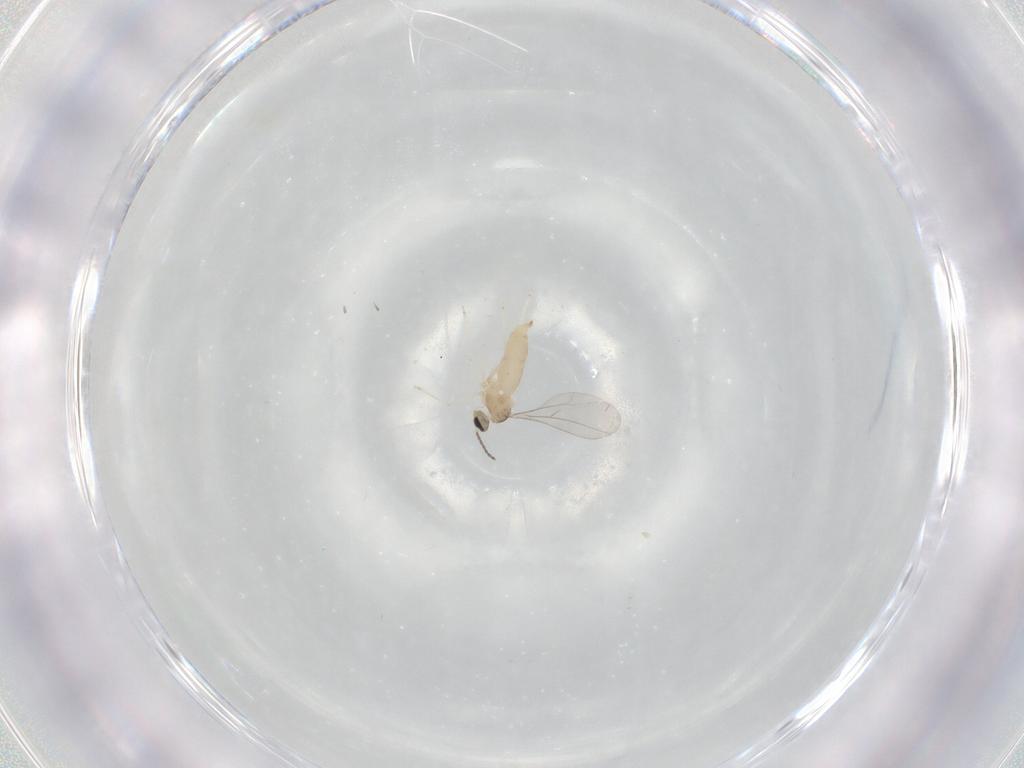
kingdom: Animalia
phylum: Arthropoda
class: Insecta
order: Diptera
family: Cecidomyiidae
